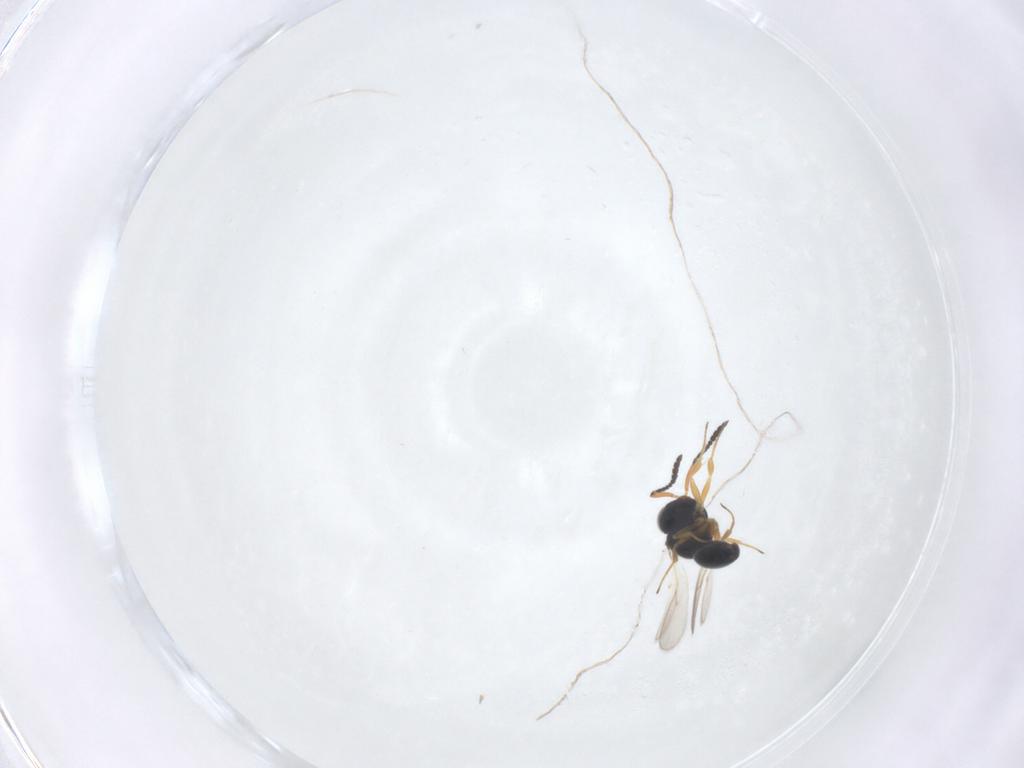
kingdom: Animalia
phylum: Arthropoda
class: Insecta
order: Hymenoptera
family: Scelionidae
